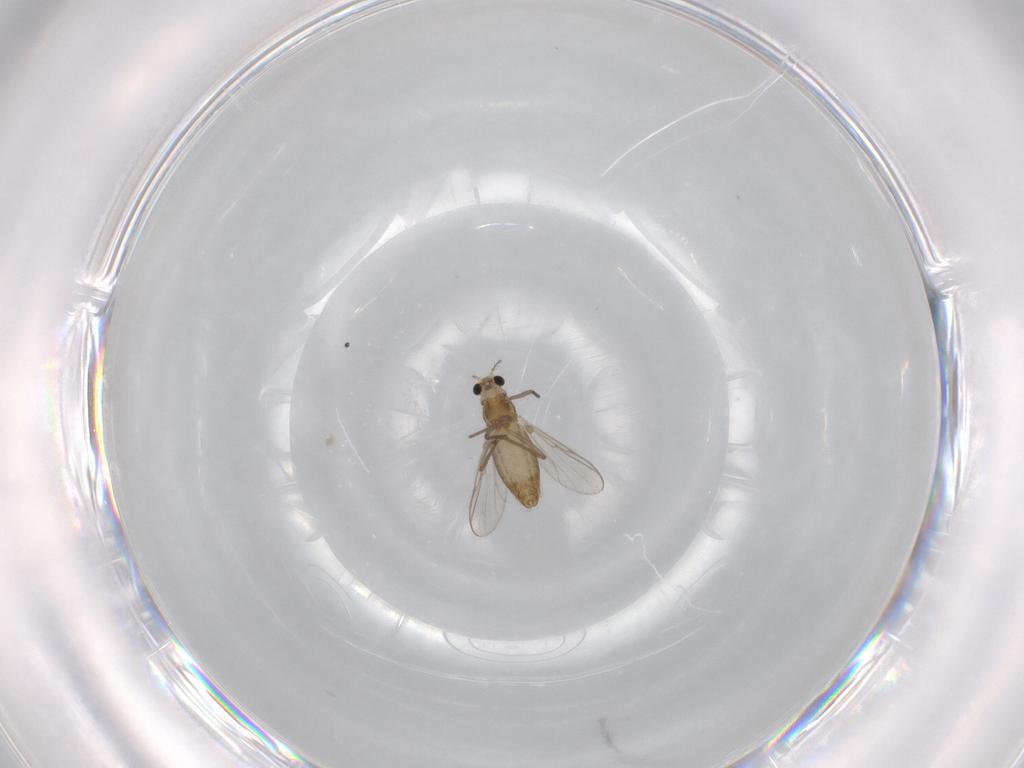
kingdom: Animalia
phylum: Arthropoda
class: Insecta
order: Diptera
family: Chironomidae
